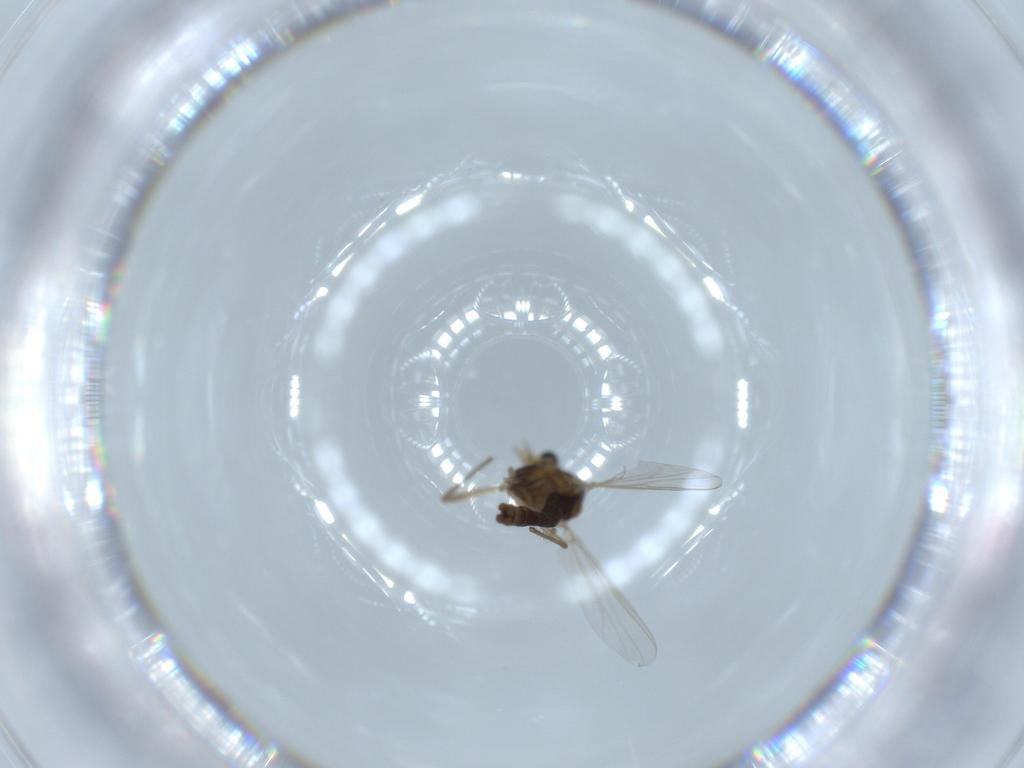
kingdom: Animalia
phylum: Arthropoda
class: Insecta
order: Diptera
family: Chironomidae
